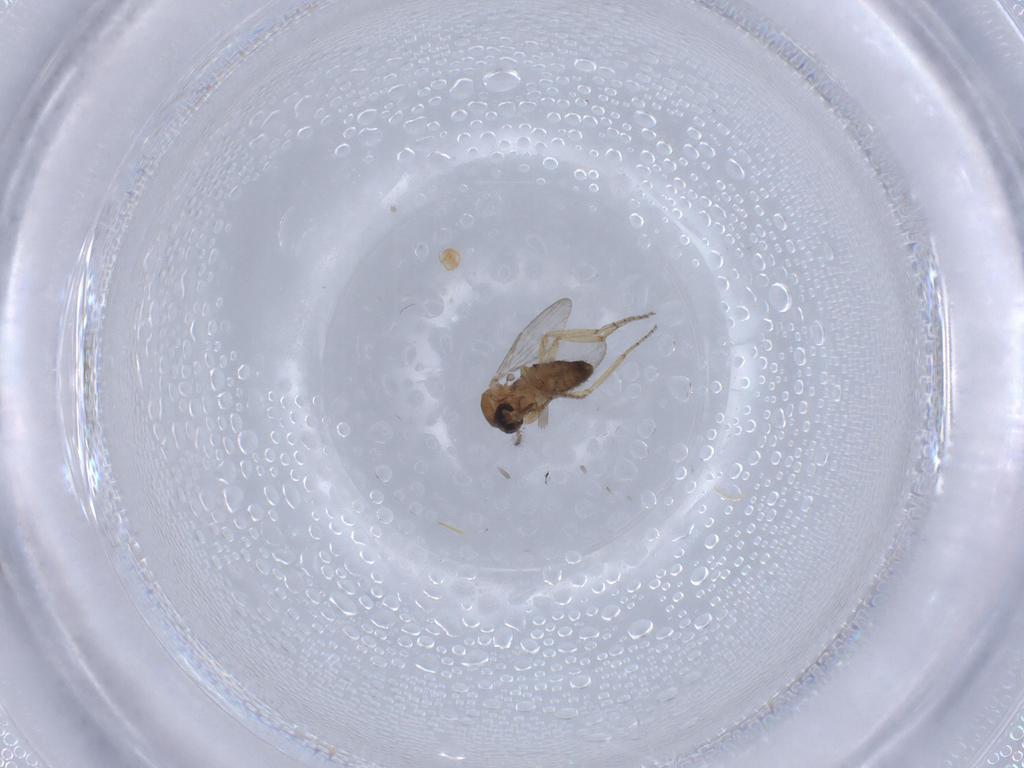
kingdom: Animalia
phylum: Arthropoda
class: Insecta
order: Diptera
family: Ceratopogonidae
